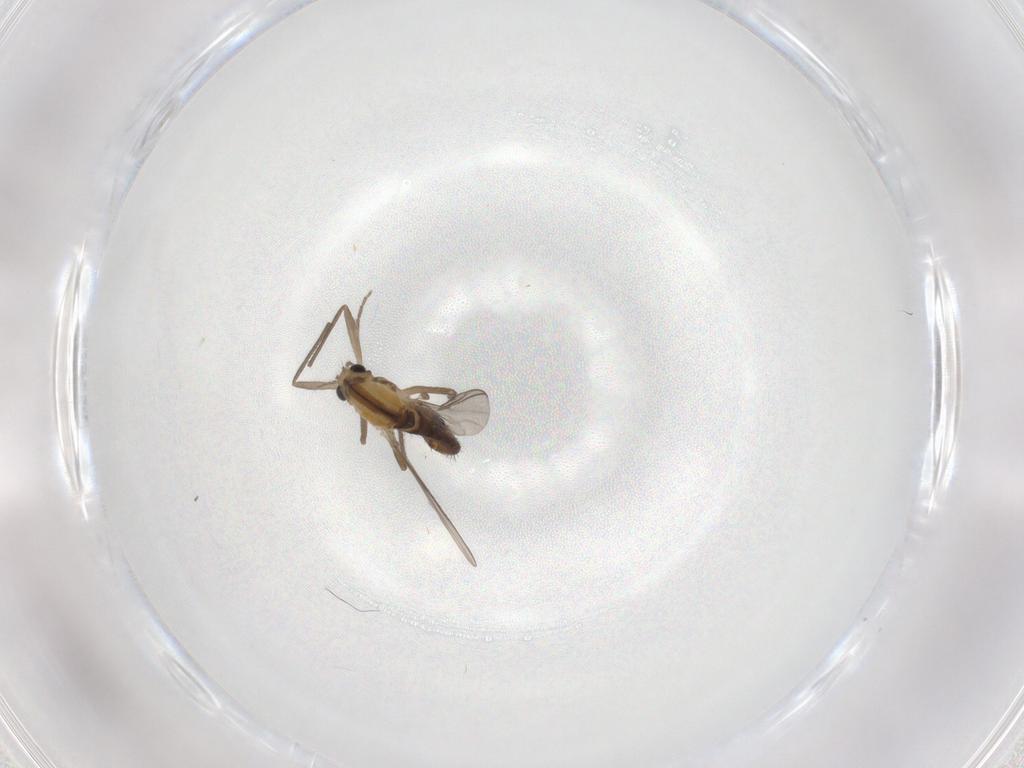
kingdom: Animalia
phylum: Arthropoda
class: Insecta
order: Diptera
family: Chironomidae
